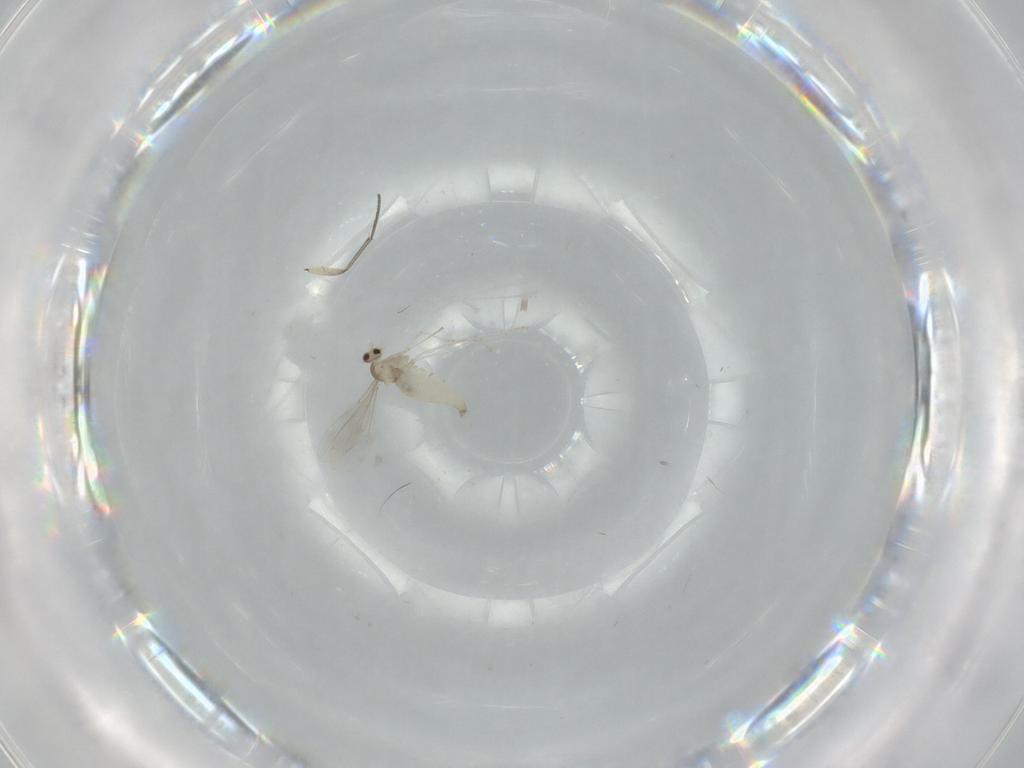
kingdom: Animalia
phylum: Arthropoda
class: Insecta
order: Diptera
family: Cecidomyiidae
